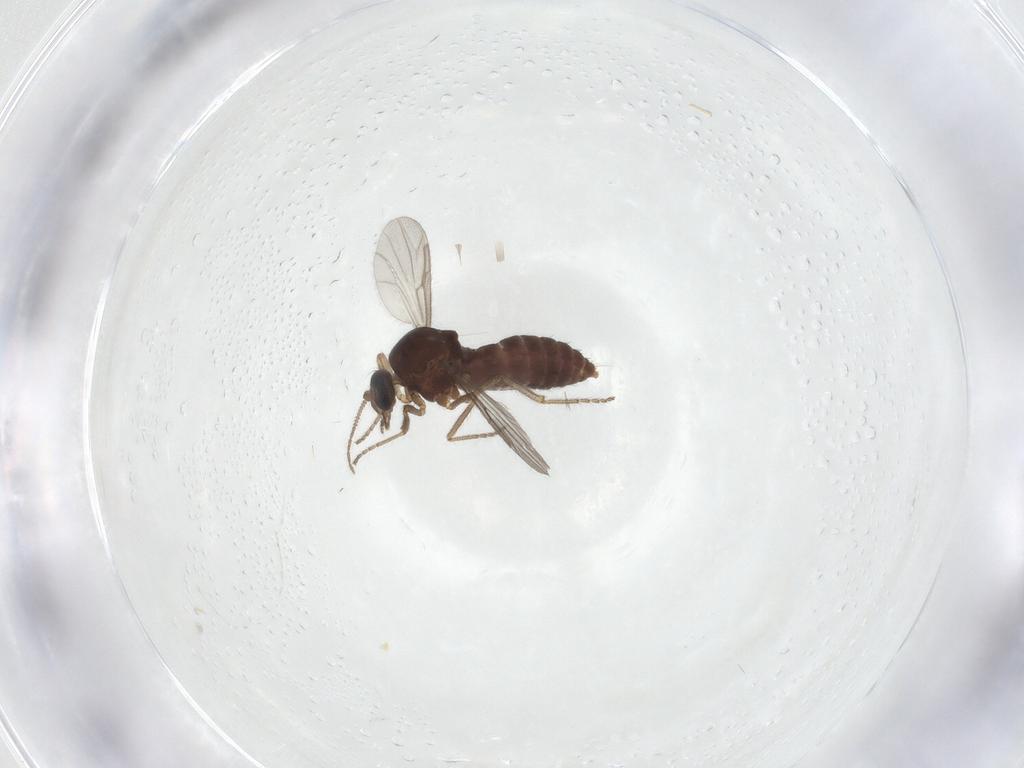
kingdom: Animalia
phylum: Arthropoda
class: Insecta
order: Diptera
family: Ceratopogonidae
